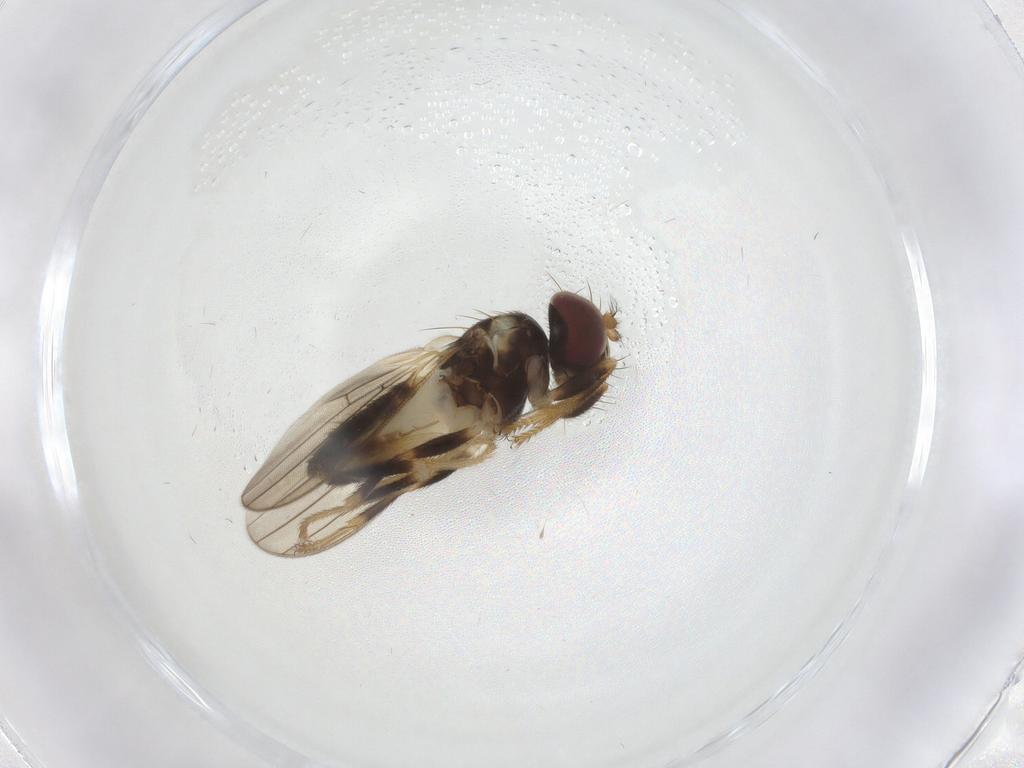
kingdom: Animalia
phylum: Arthropoda
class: Insecta
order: Diptera
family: Periscelididae
